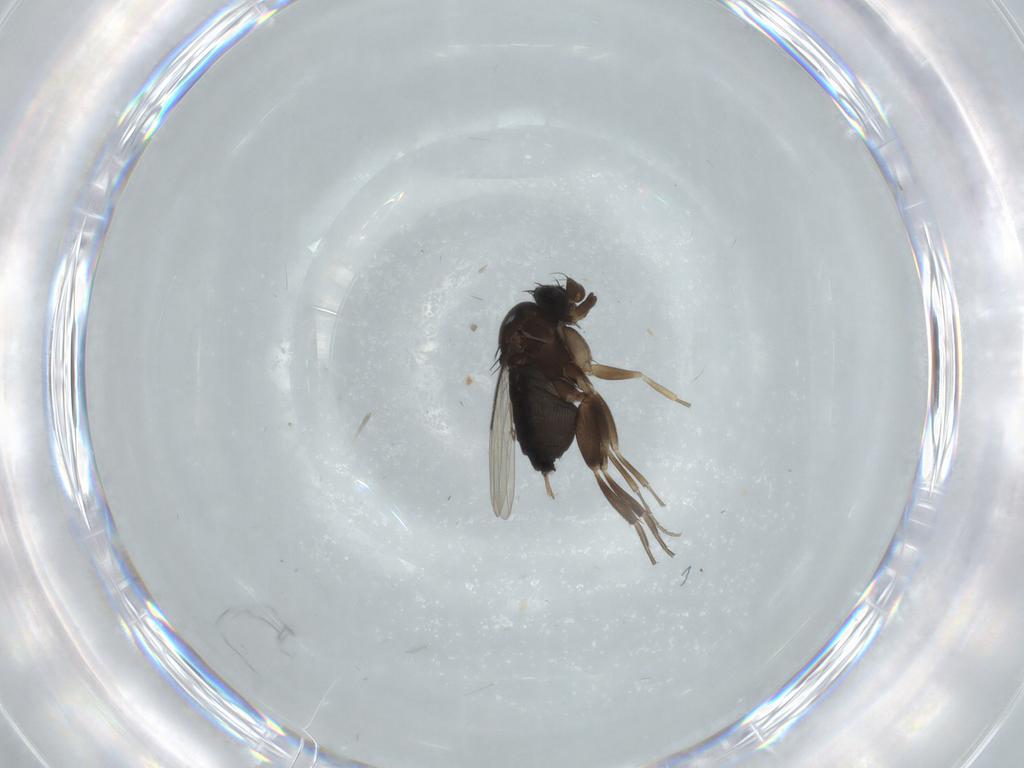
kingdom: Animalia
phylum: Arthropoda
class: Insecta
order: Diptera
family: Phoridae
